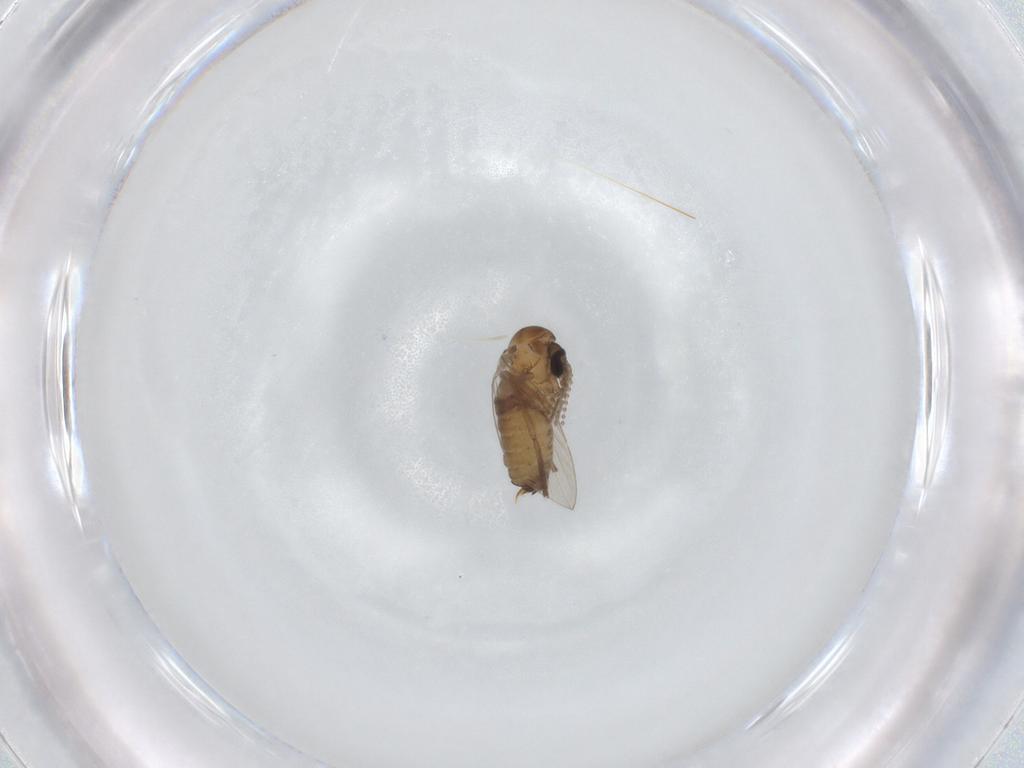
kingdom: Animalia
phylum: Arthropoda
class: Insecta
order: Diptera
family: Psychodidae
